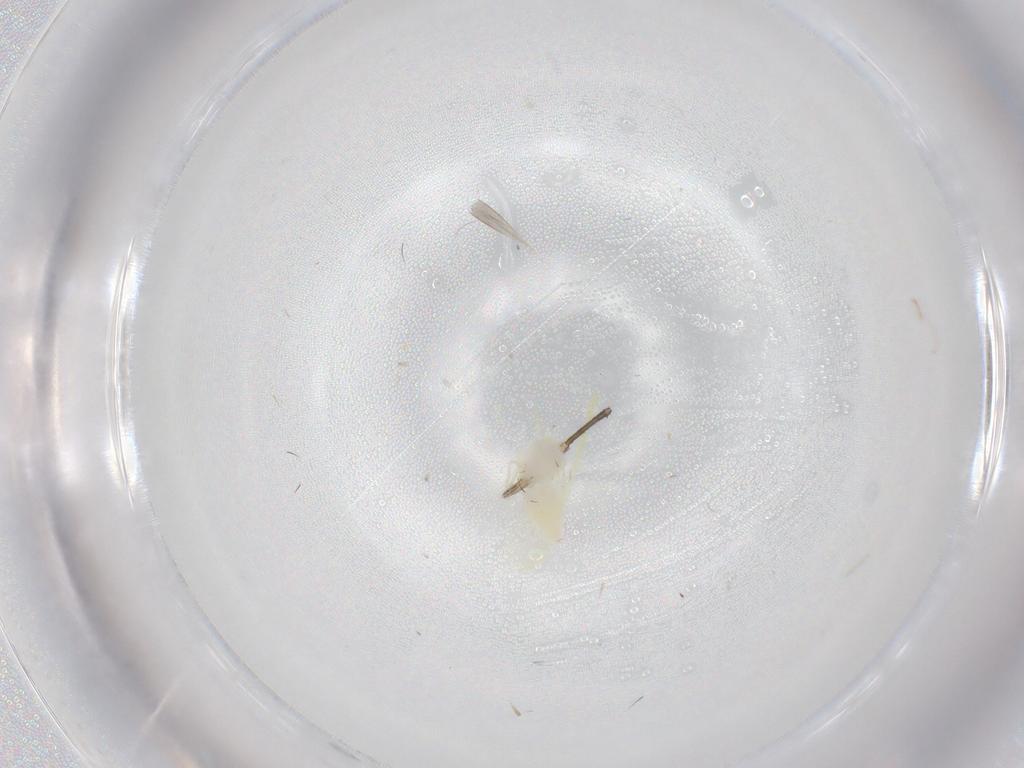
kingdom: Animalia
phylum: Arthropoda
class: Insecta
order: Hemiptera
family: Aleyrodidae
